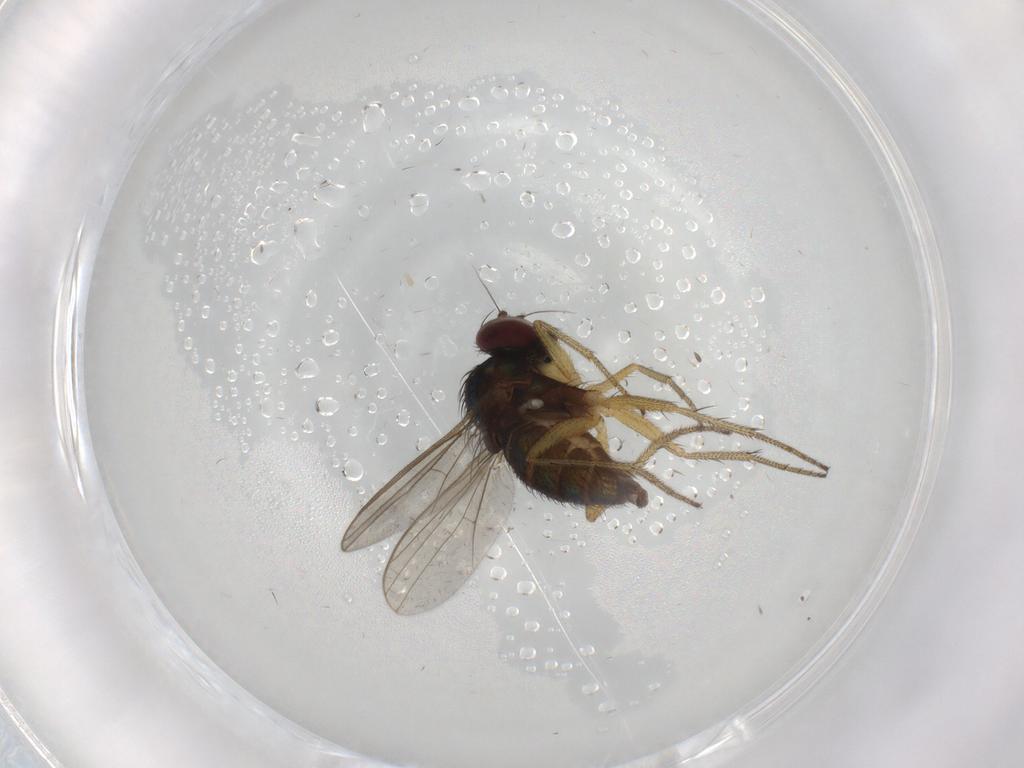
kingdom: Animalia
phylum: Arthropoda
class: Insecta
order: Diptera
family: Dolichopodidae
